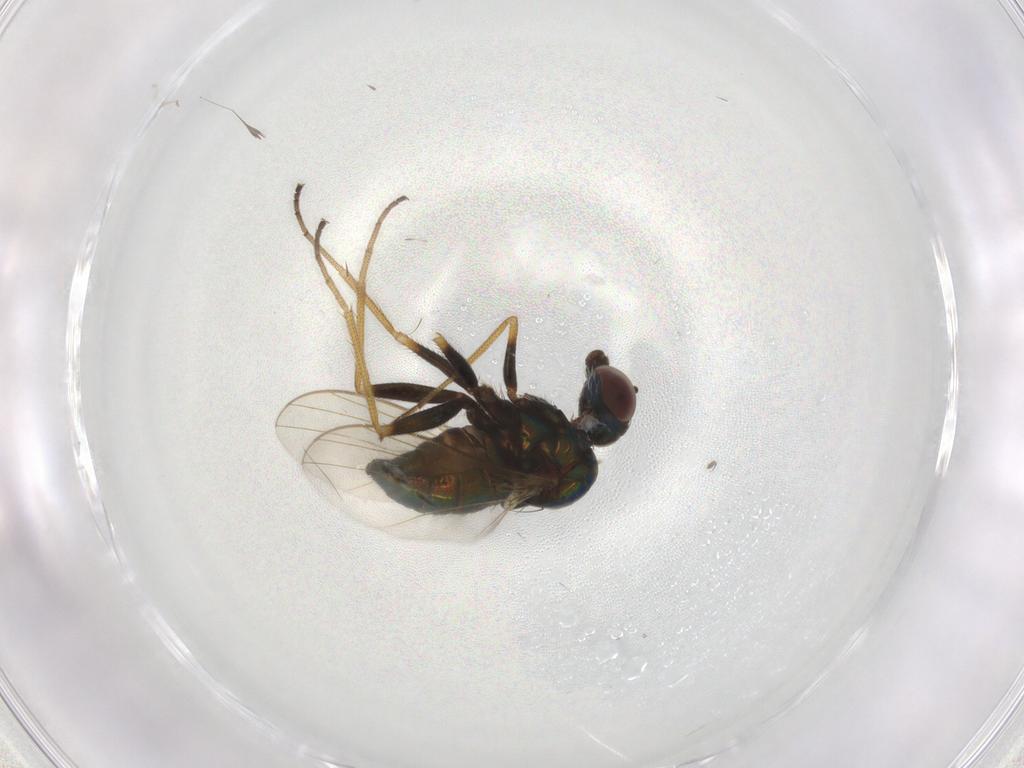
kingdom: Animalia
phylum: Arthropoda
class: Insecta
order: Diptera
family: Dolichopodidae
